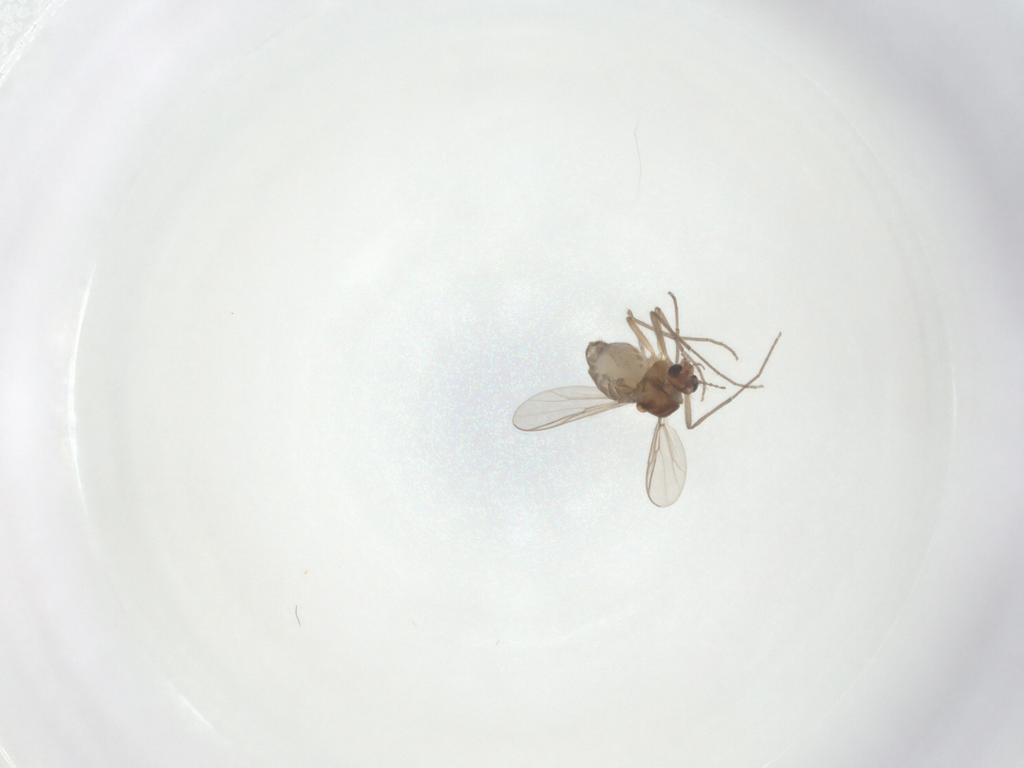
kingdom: Animalia
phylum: Arthropoda
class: Insecta
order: Diptera
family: Chironomidae
